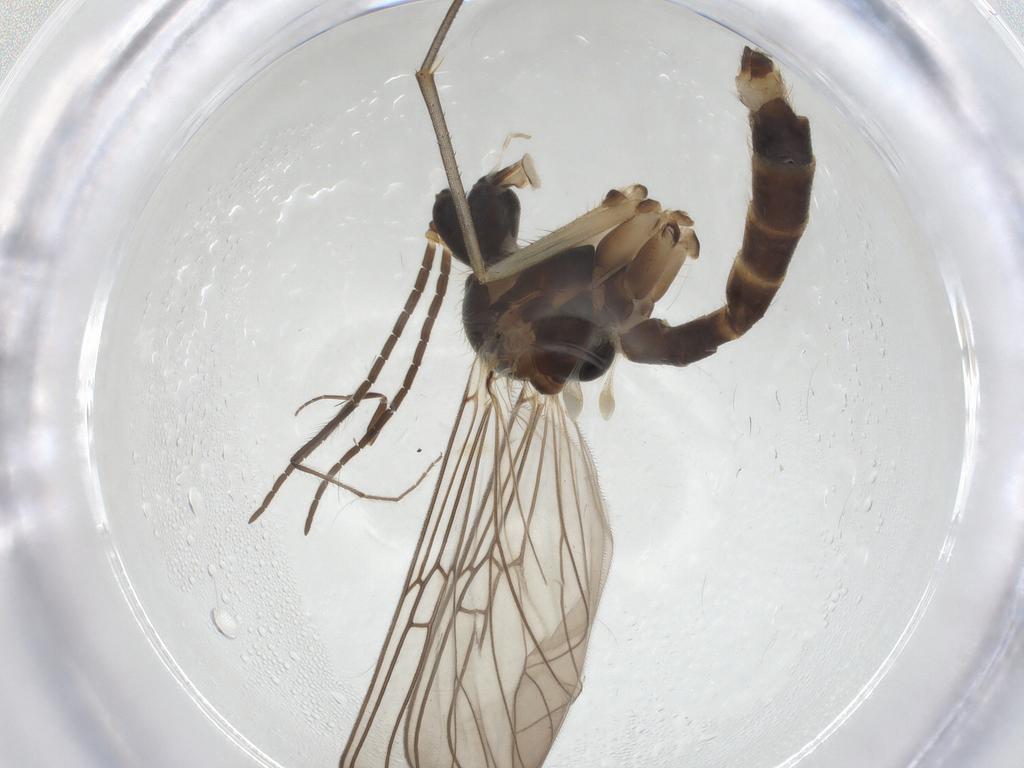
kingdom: Animalia
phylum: Arthropoda
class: Insecta
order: Diptera
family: Mycetophilidae
